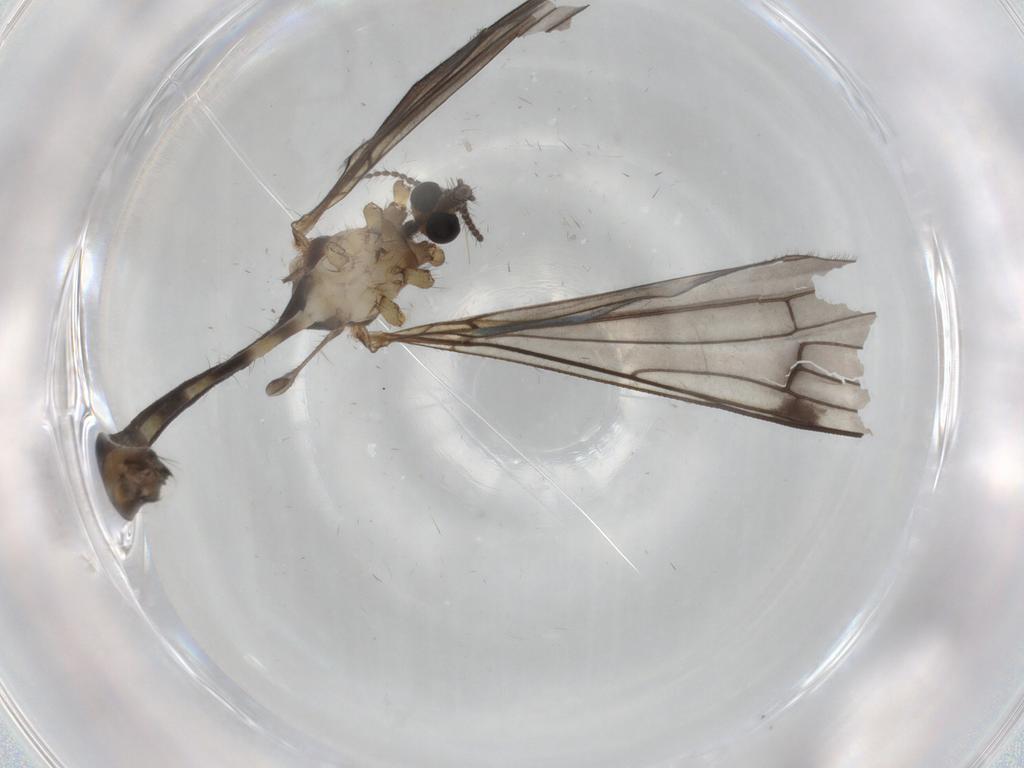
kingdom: Animalia
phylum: Arthropoda
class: Insecta
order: Diptera
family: Limoniidae
